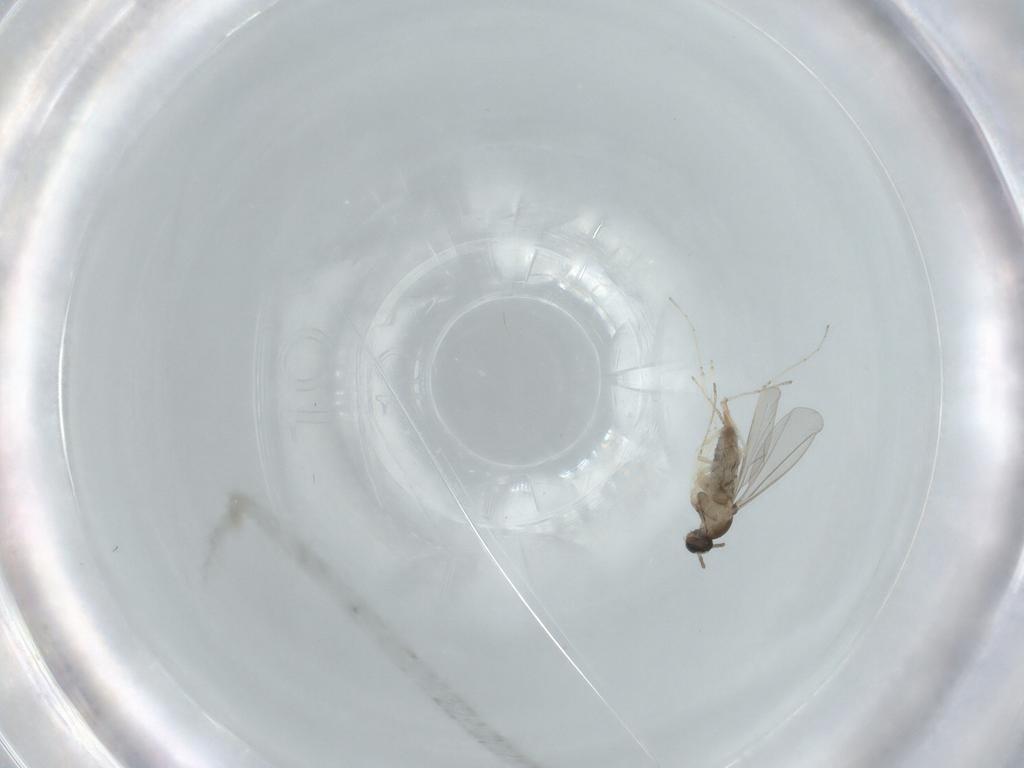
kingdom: Animalia
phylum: Arthropoda
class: Insecta
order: Diptera
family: Cecidomyiidae
